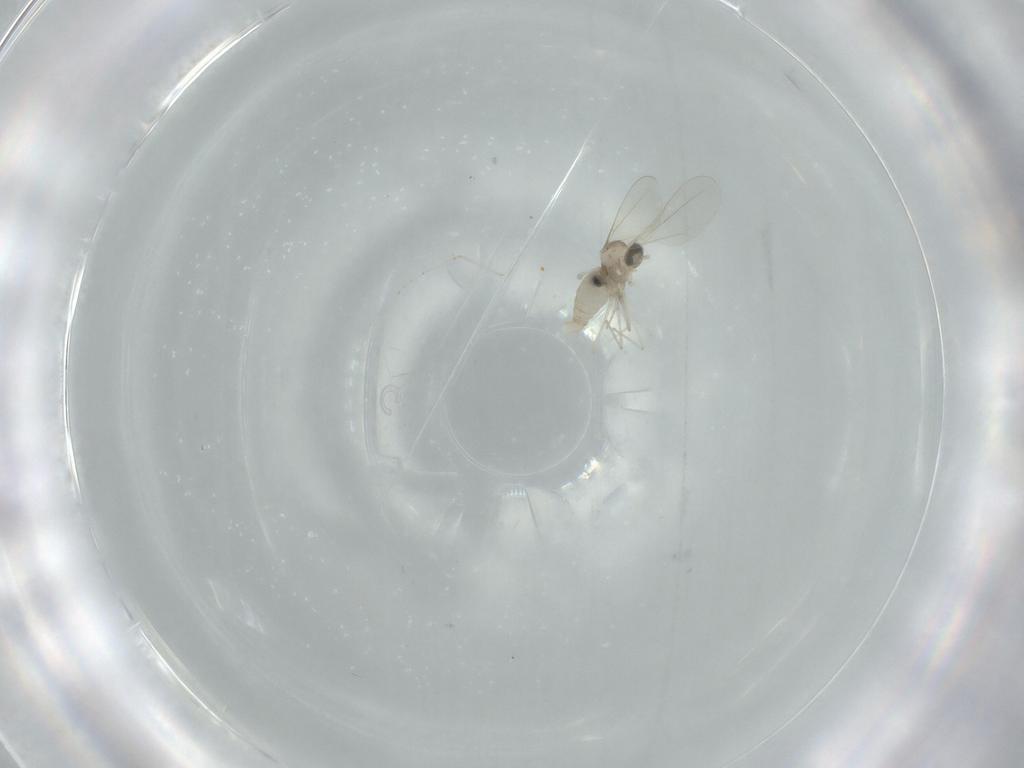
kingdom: Animalia
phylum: Arthropoda
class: Insecta
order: Diptera
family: Cecidomyiidae
